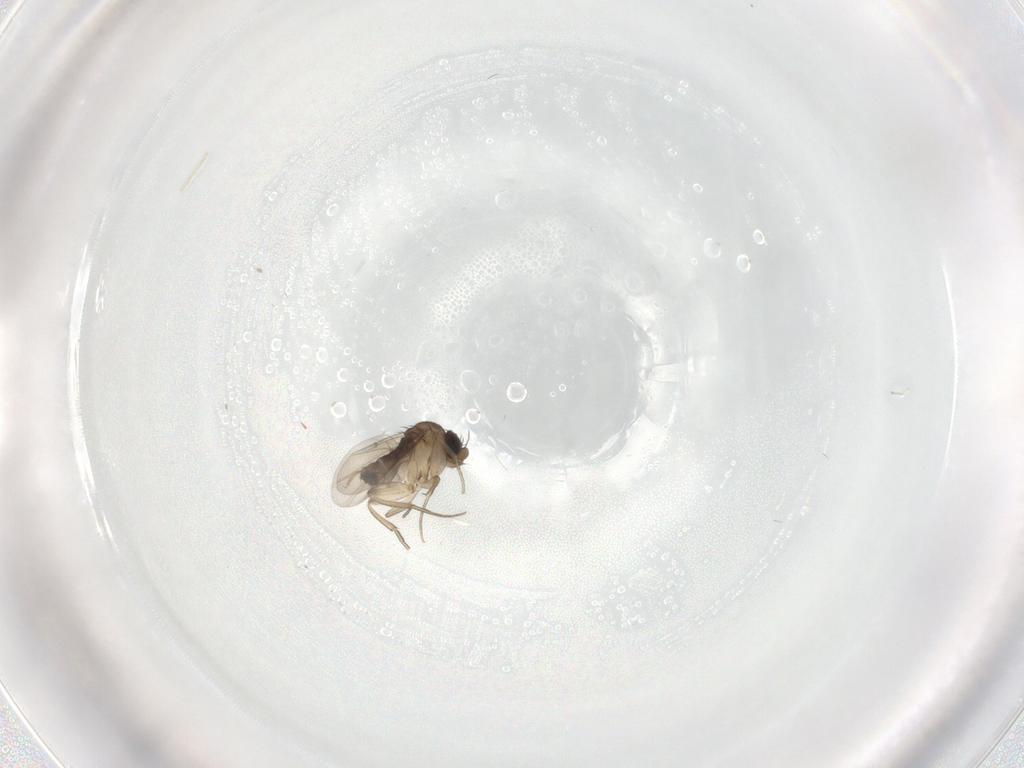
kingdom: Animalia
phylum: Arthropoda
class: Insecta
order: Diptera
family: Phoridae
